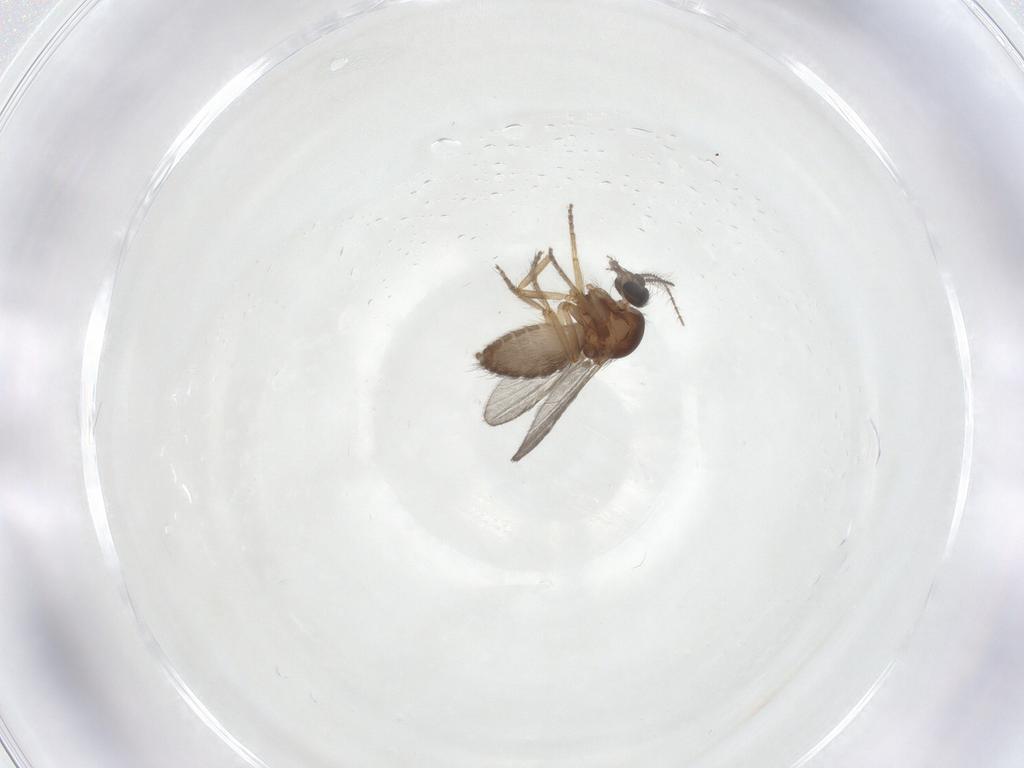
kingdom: Animalia
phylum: Arthropoda
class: Insecta
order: Diptera
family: Ceratopogonidae
